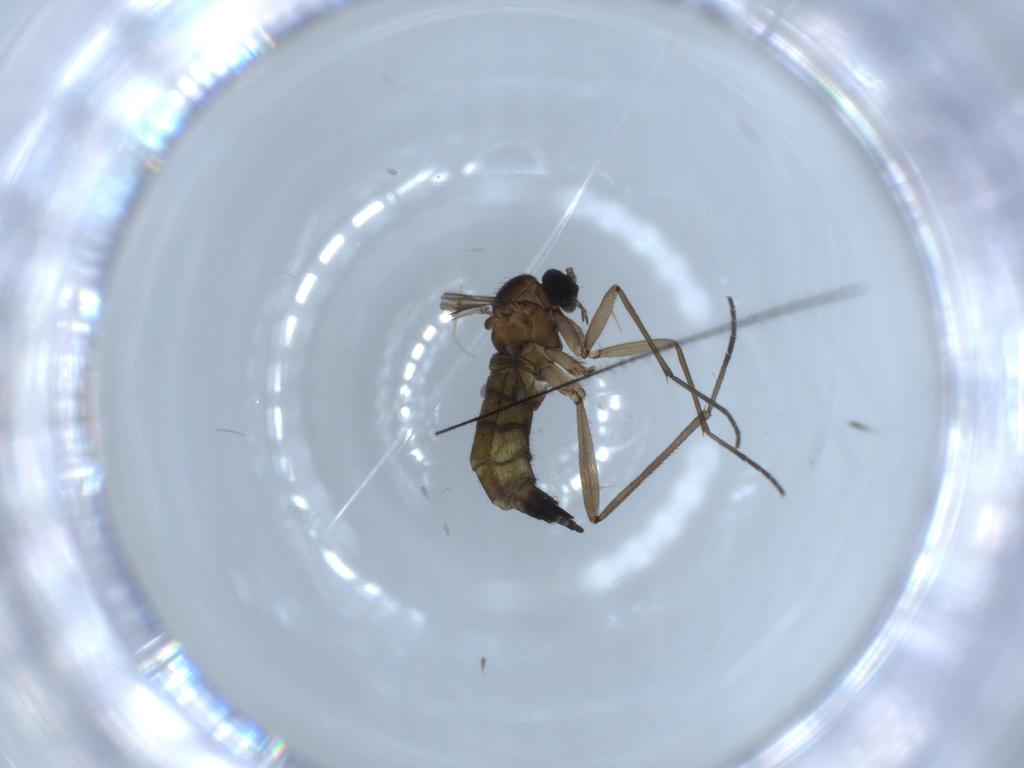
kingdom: Animalia
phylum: Arthropoda
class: Insecta
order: Diptera
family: Sciaridae
